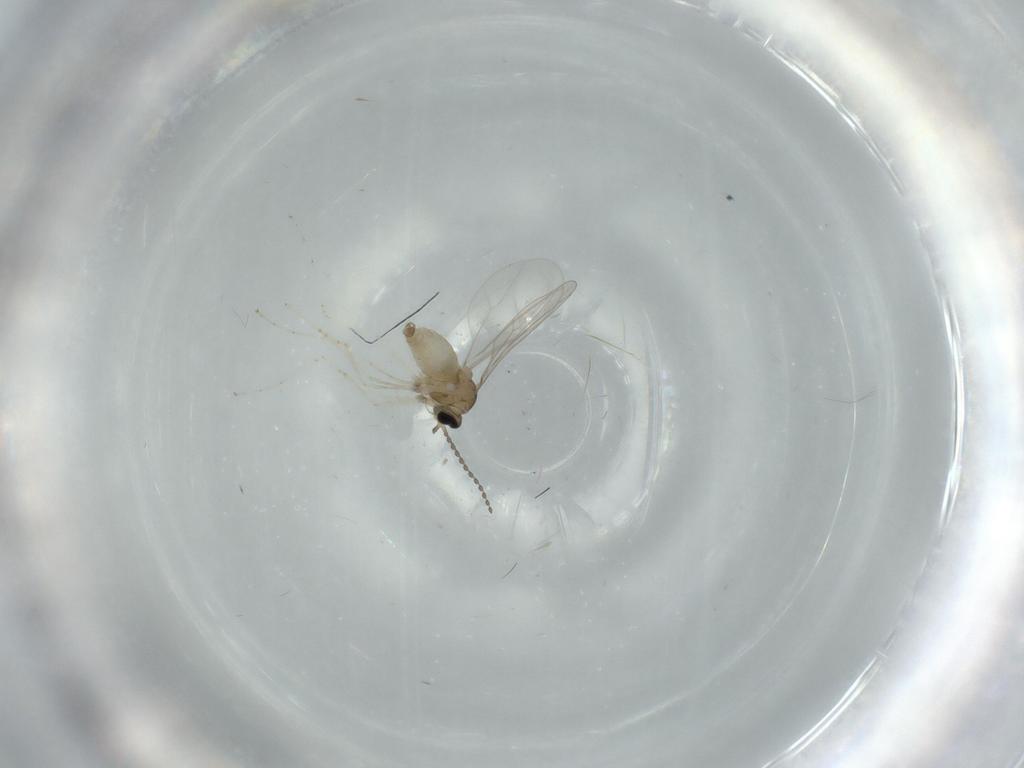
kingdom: Animalia
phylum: Arthropoda
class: Insecta
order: Diptera
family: Cecidomyiidae
